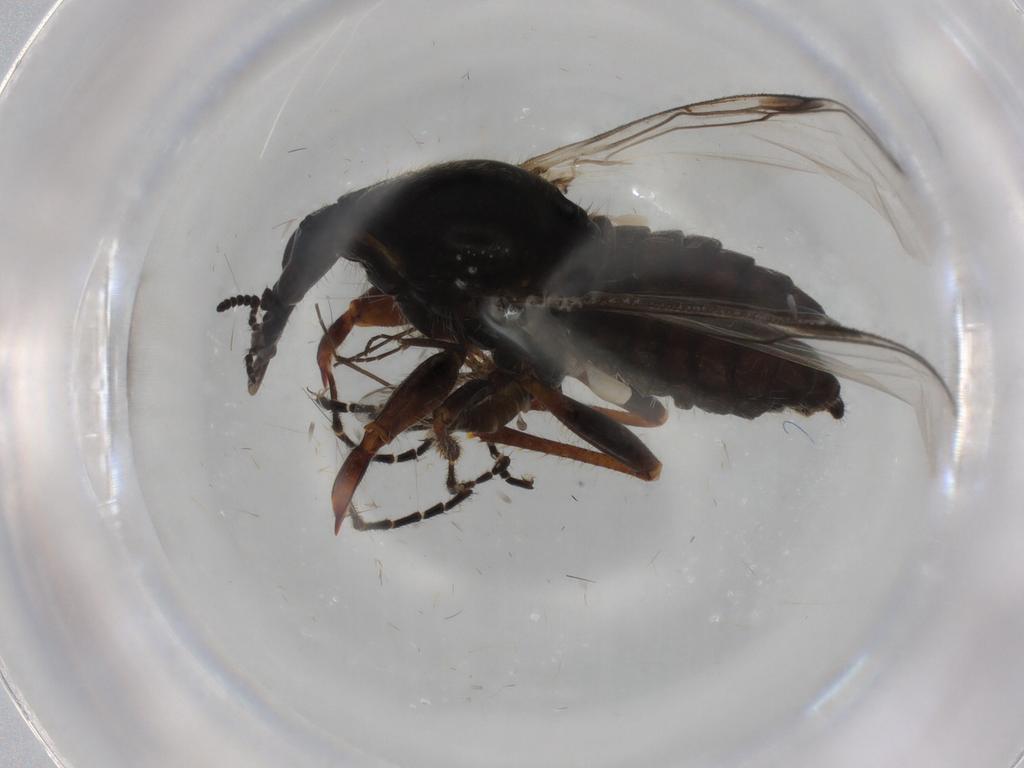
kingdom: Animalia
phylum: Arthropoda
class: Insecta
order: Diptera
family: Bibionidae
